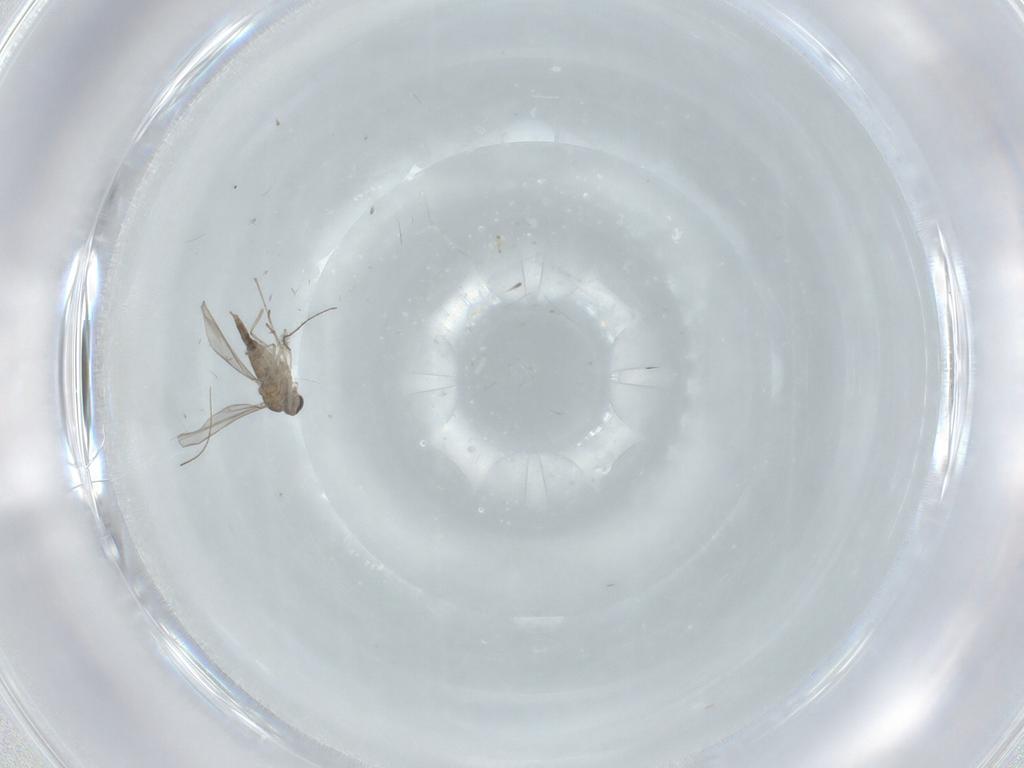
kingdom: Animalia
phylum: Arthropoda
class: Insecta
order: Diptera
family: Cecidomyiidae
